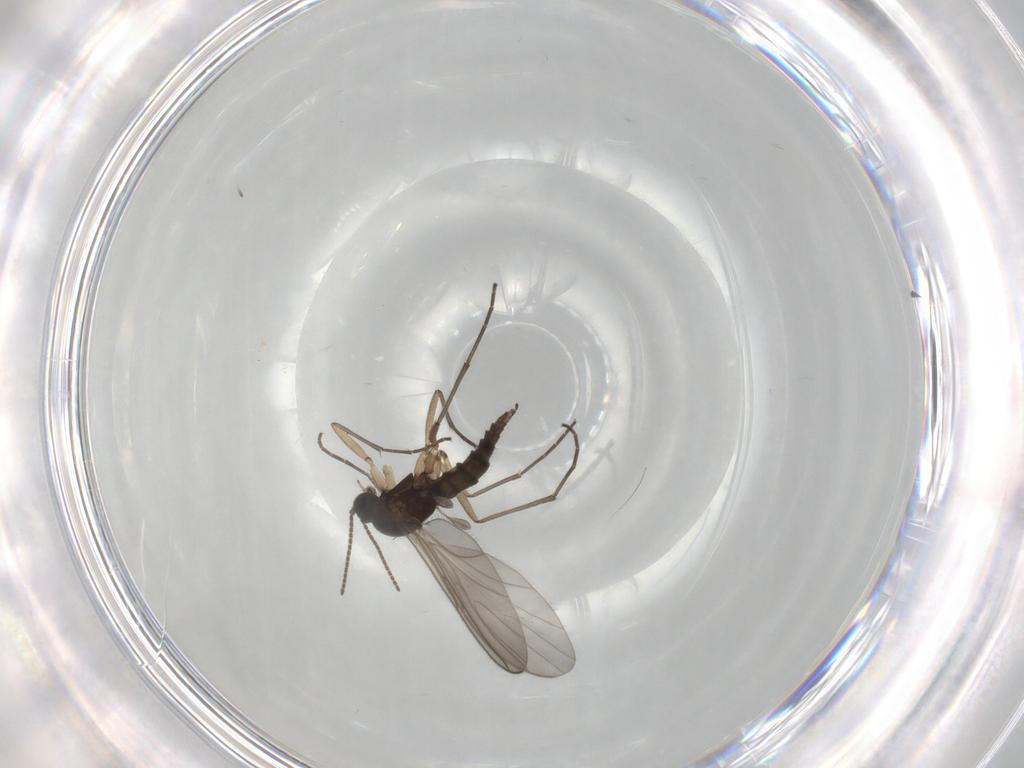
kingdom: Animalia
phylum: Arthropoda
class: Insecta
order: Diptera
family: Sciaridae
